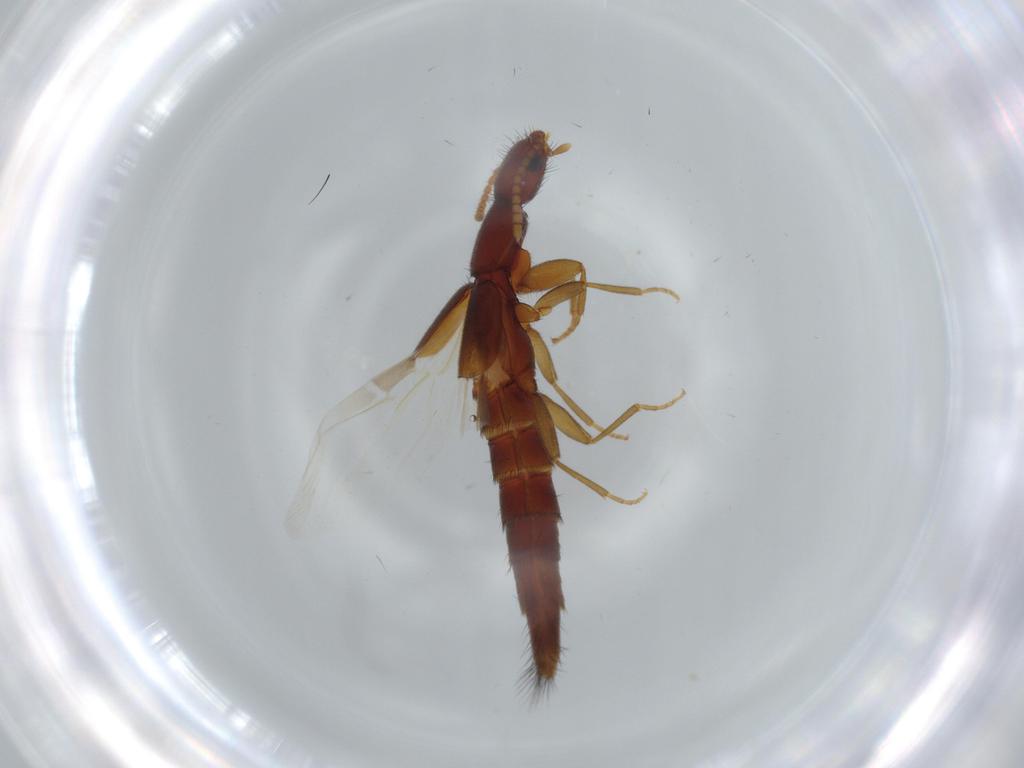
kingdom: Animalia
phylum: Arthropoda
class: Insecta
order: Coleoptera
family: Staphylinidae
